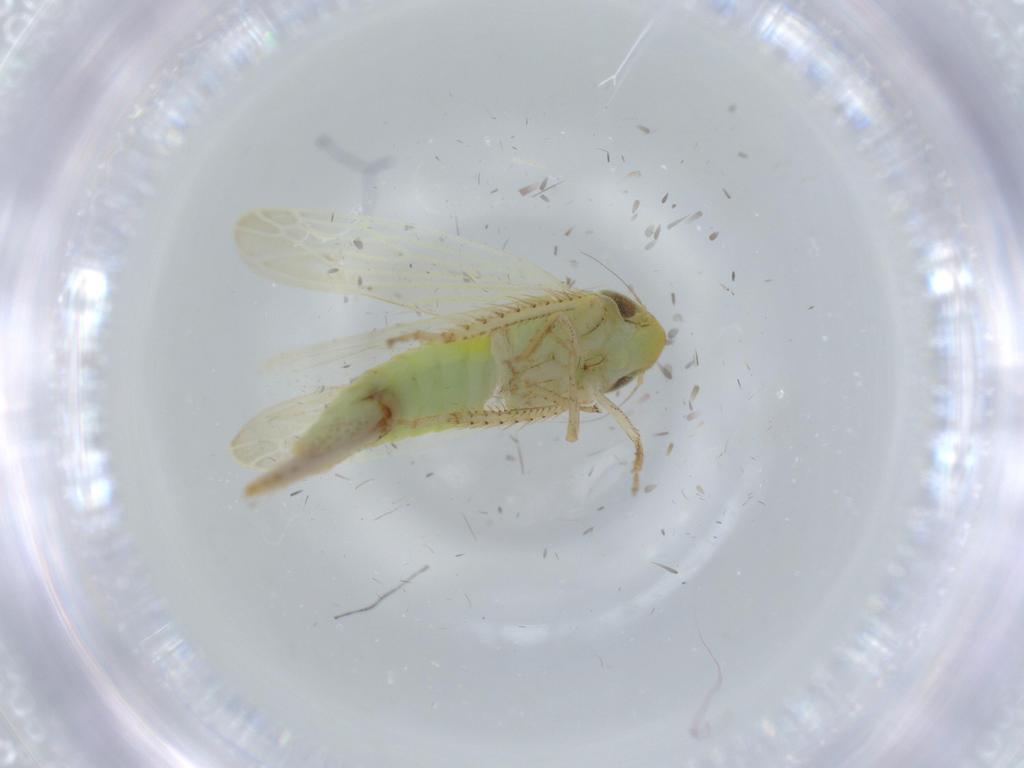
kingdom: Animalia
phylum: Arthropoda
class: Insecta
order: Hemiptera
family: Cicadellidae
